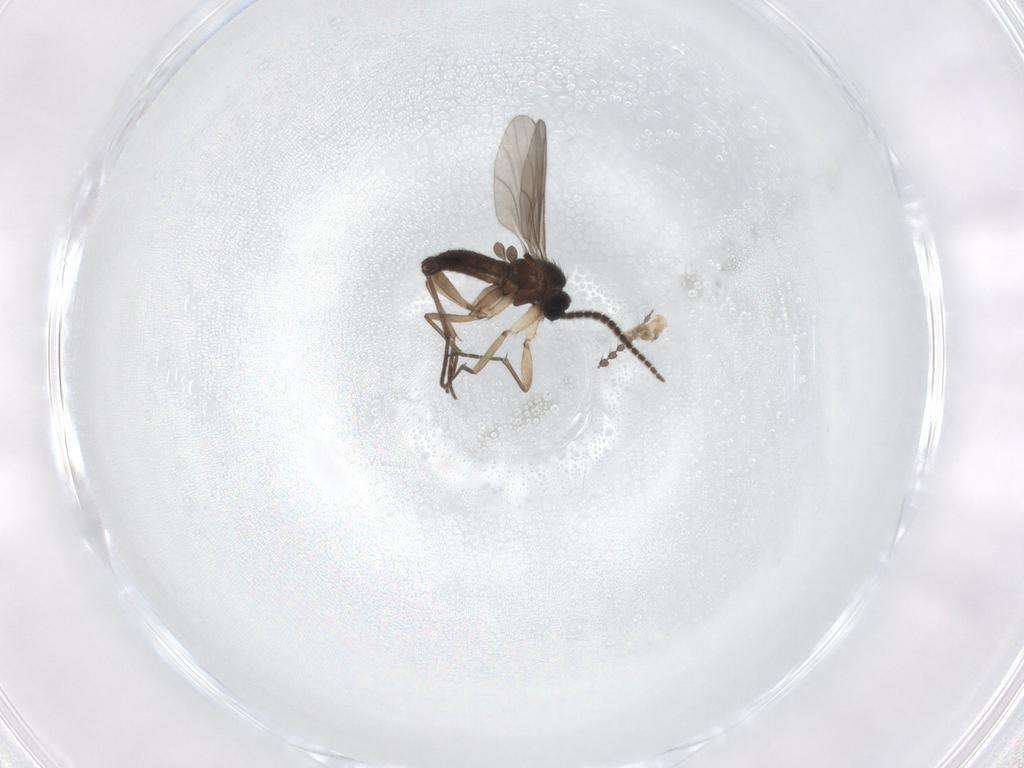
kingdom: Animalia
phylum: Arthropoda
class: Insecta
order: Diptera
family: Sciaridae
